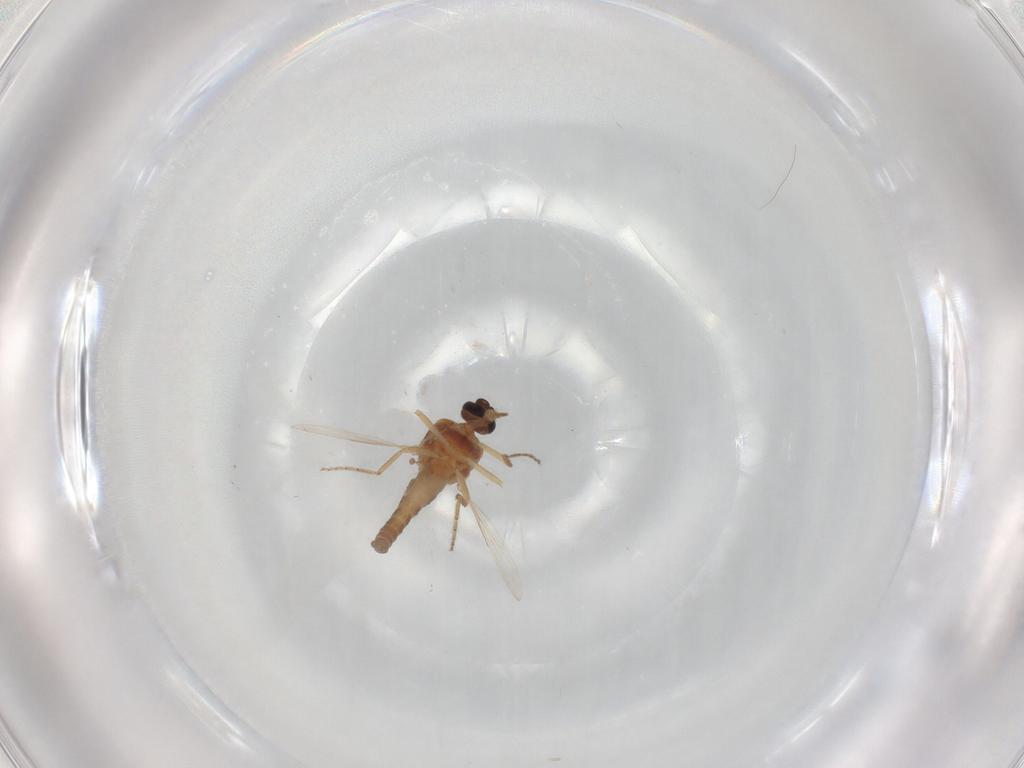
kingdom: Animalia
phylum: Arthropoda
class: Insecta
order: Diptera
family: Ceratopogonidae
